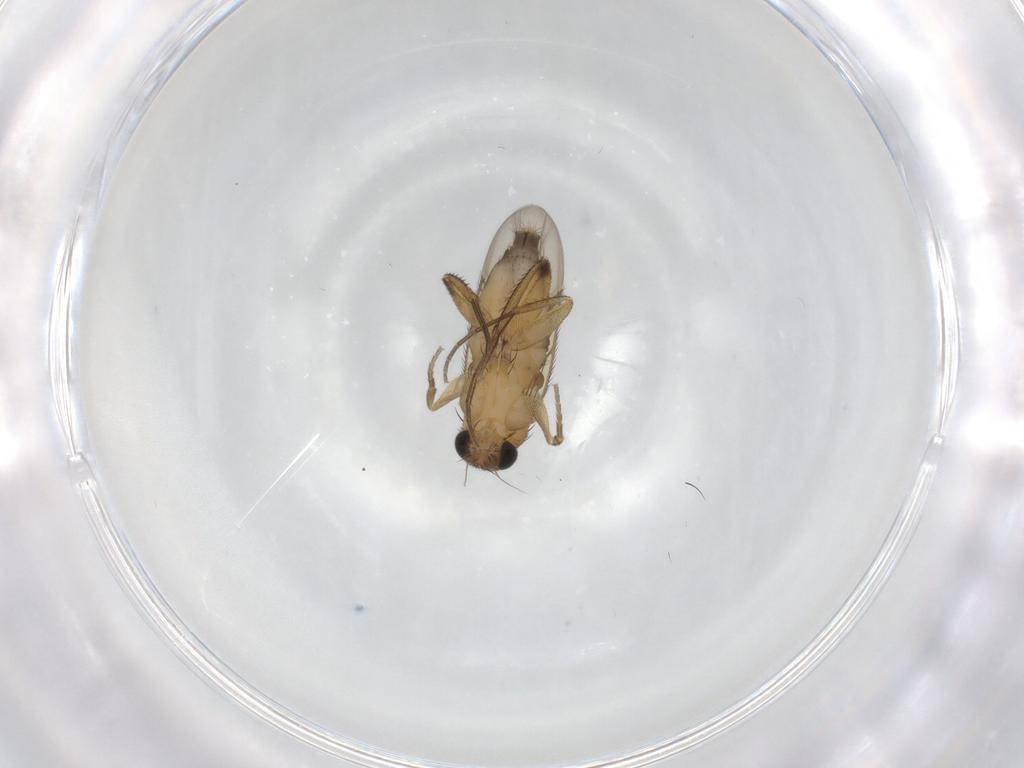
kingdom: Animalia
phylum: Arthropoda
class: Insecta
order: Diptera
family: Phoridae
